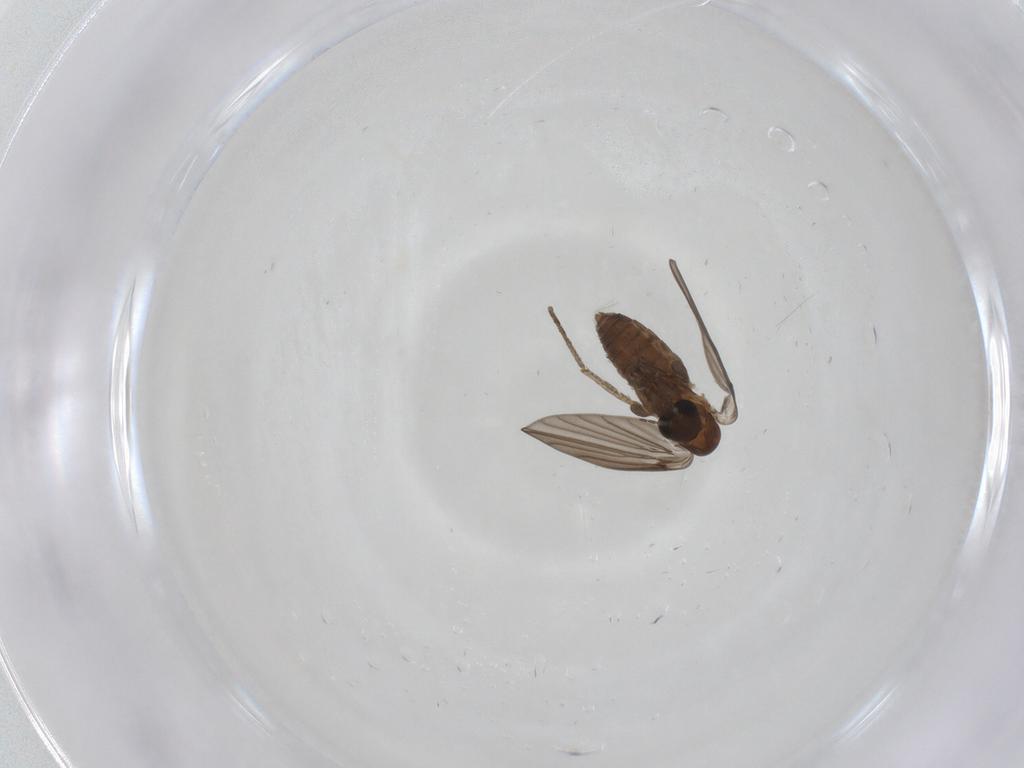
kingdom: Animalia
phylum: Arthropoda
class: Insecta
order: Diptera
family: Psychodidae
